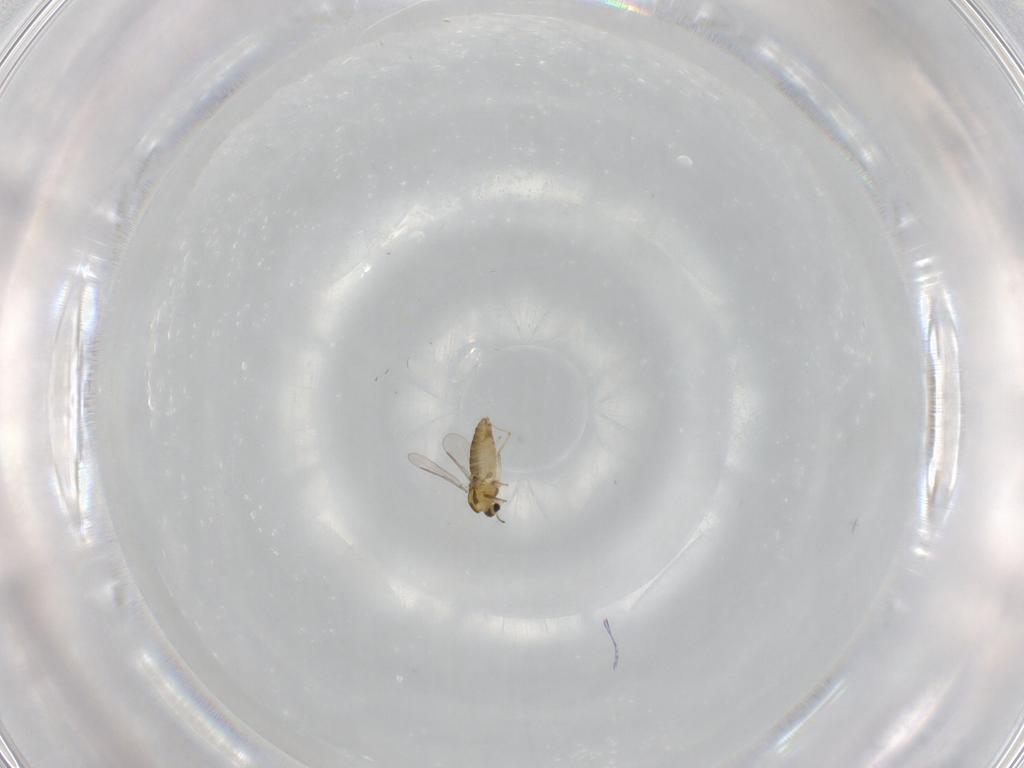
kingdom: Animalia
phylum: Arthropoda
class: Insecta
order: Diptera
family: Chironomidae
